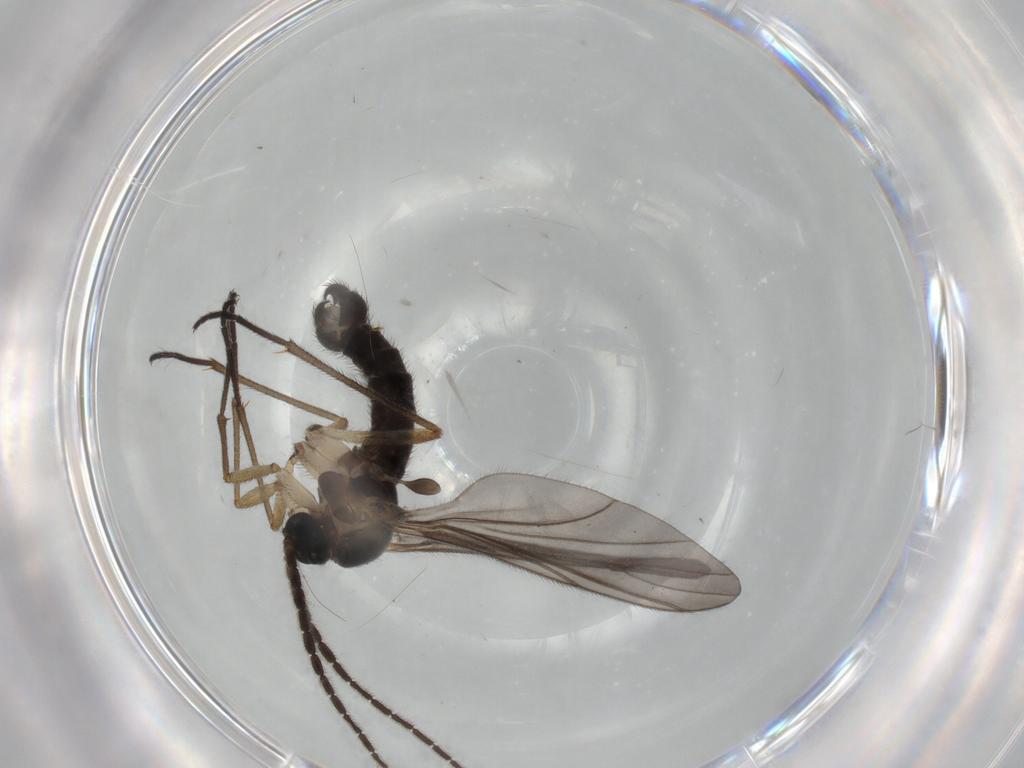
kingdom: Animalia
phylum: Arthropoda
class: Insecta
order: Diptera
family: Sciaridae
